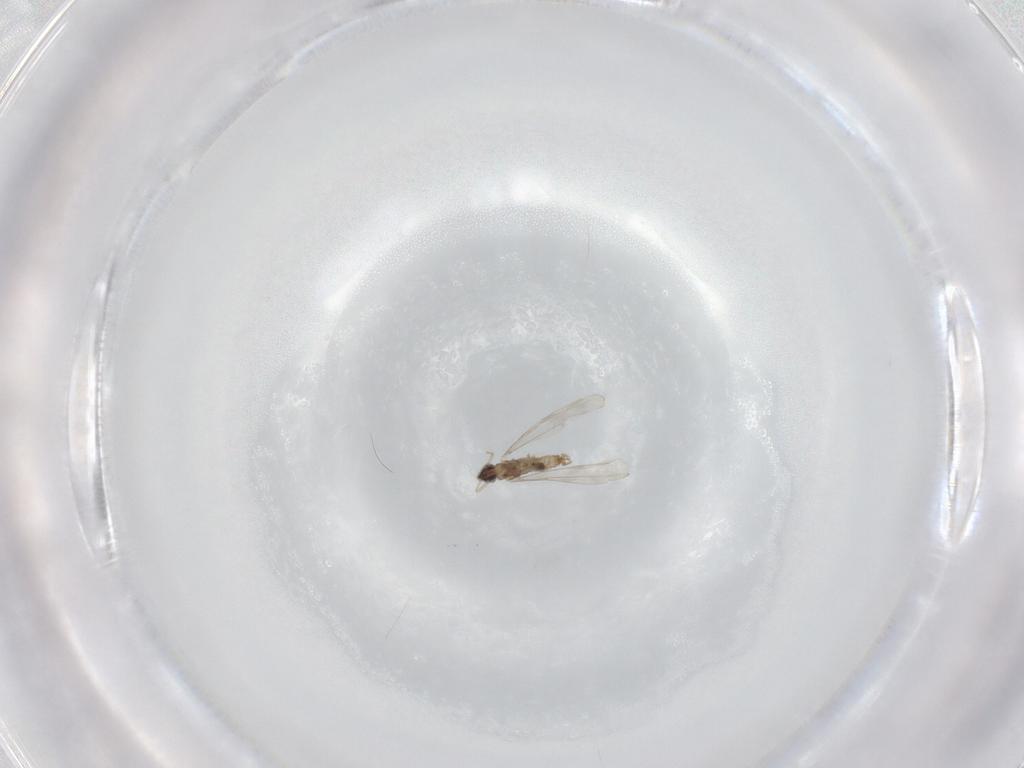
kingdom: Animalia
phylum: Arthropoda
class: Insecta
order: Diptera
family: Cecidomyiidae
